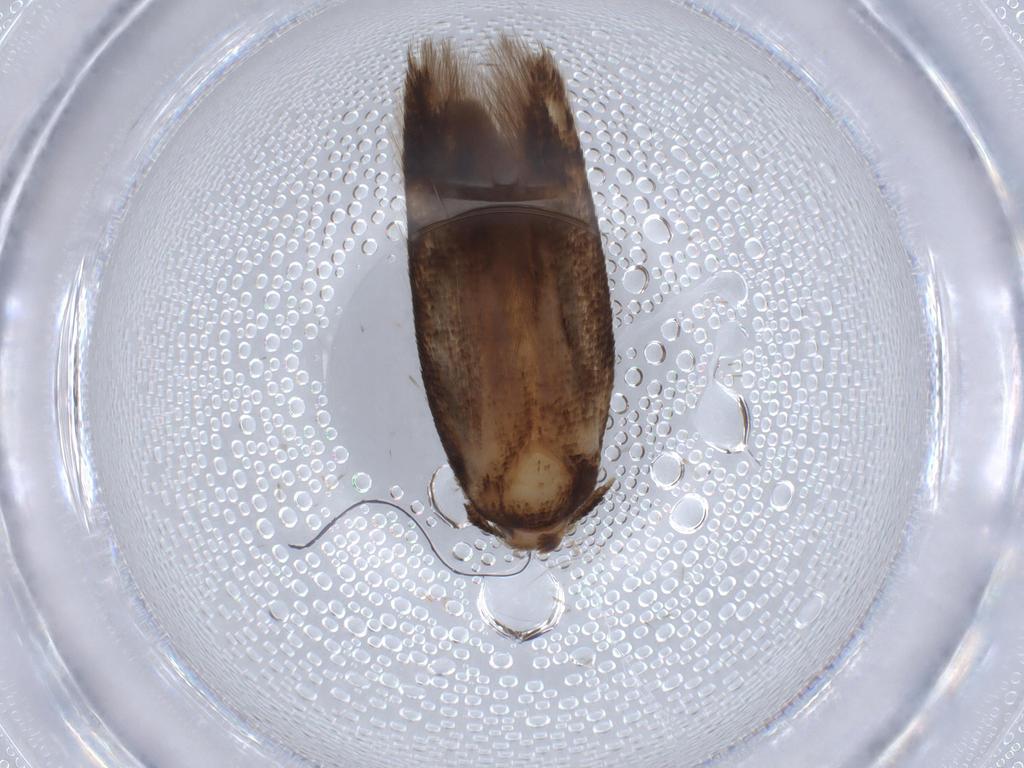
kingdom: Animalia
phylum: Arthropoda
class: Insecta
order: Lepidoptera
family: Crambidae
